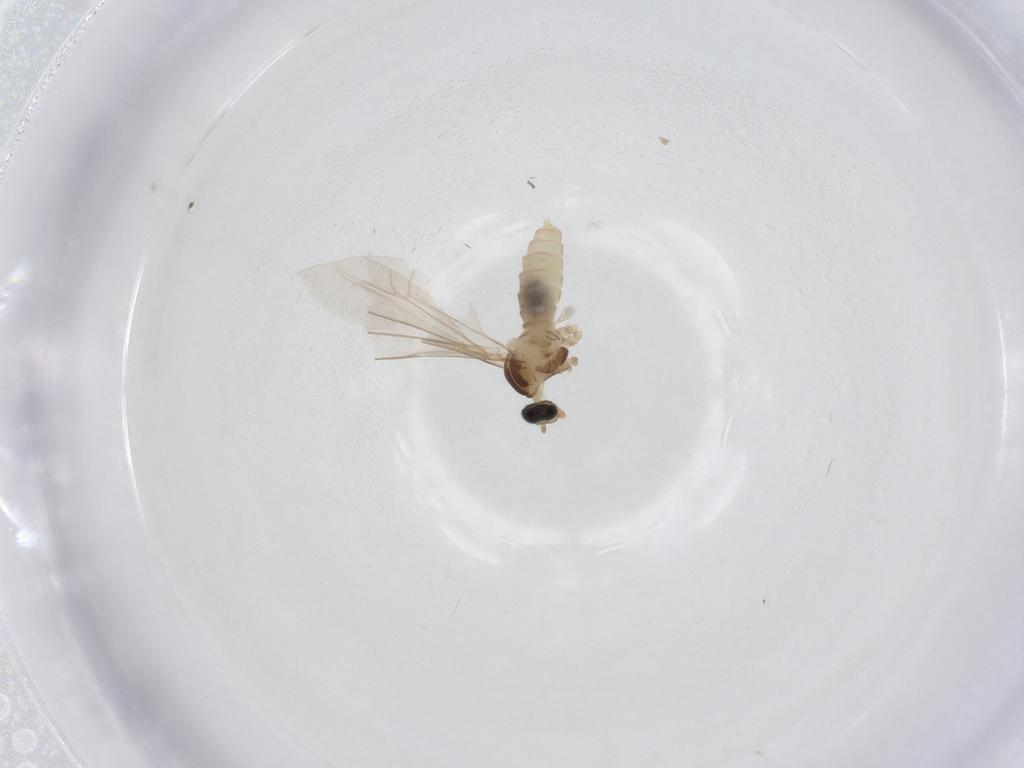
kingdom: Animalia
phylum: Arthropoda
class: Insecta
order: Diptera
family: Cecidomyiidae
